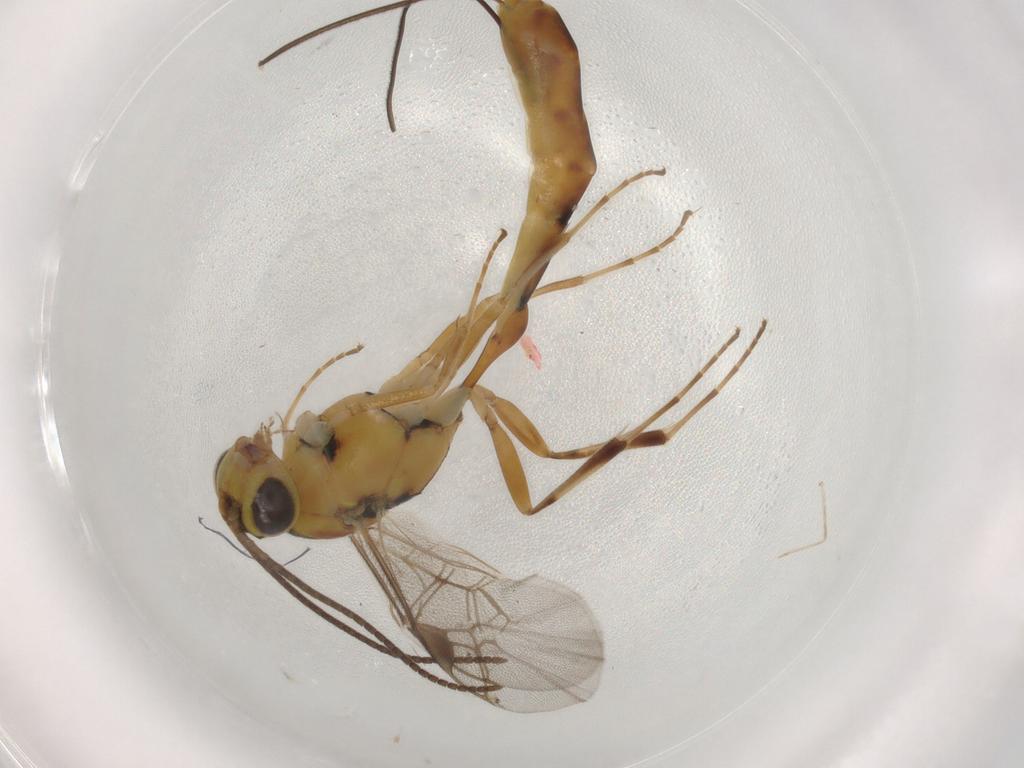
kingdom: Animalia
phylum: Arthropoda
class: Insecta
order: Hymenoptera
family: Ichneumonidae
